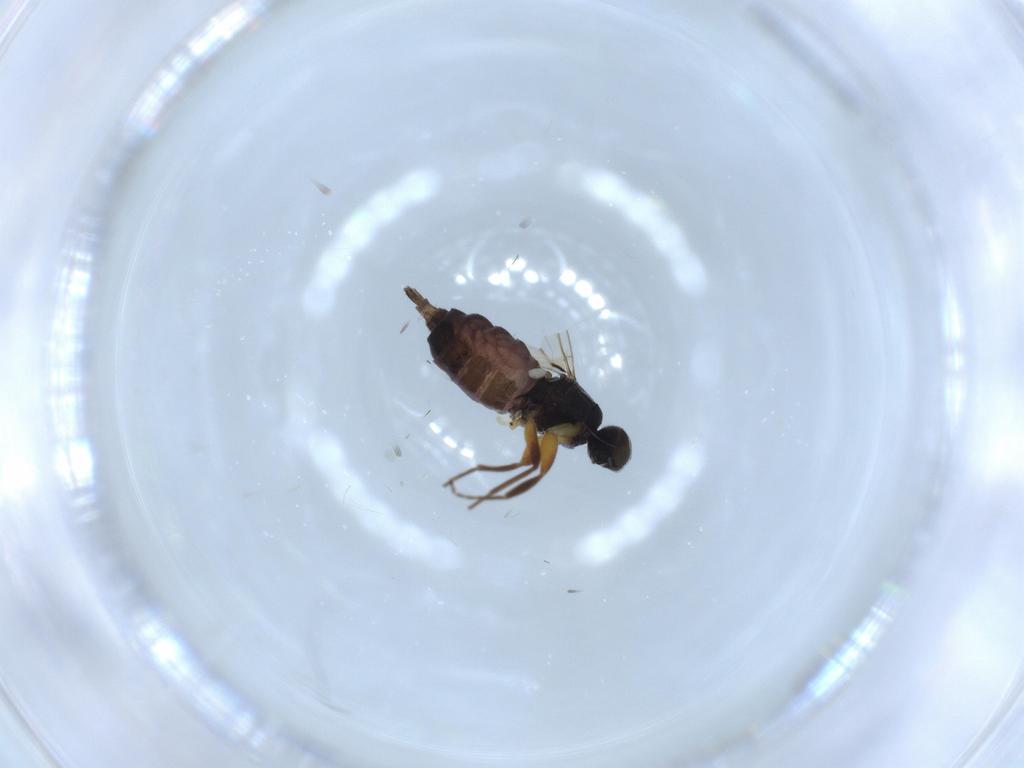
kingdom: Animalia
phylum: Arthropoda
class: Insecta
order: Diptera
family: Hybotidae
